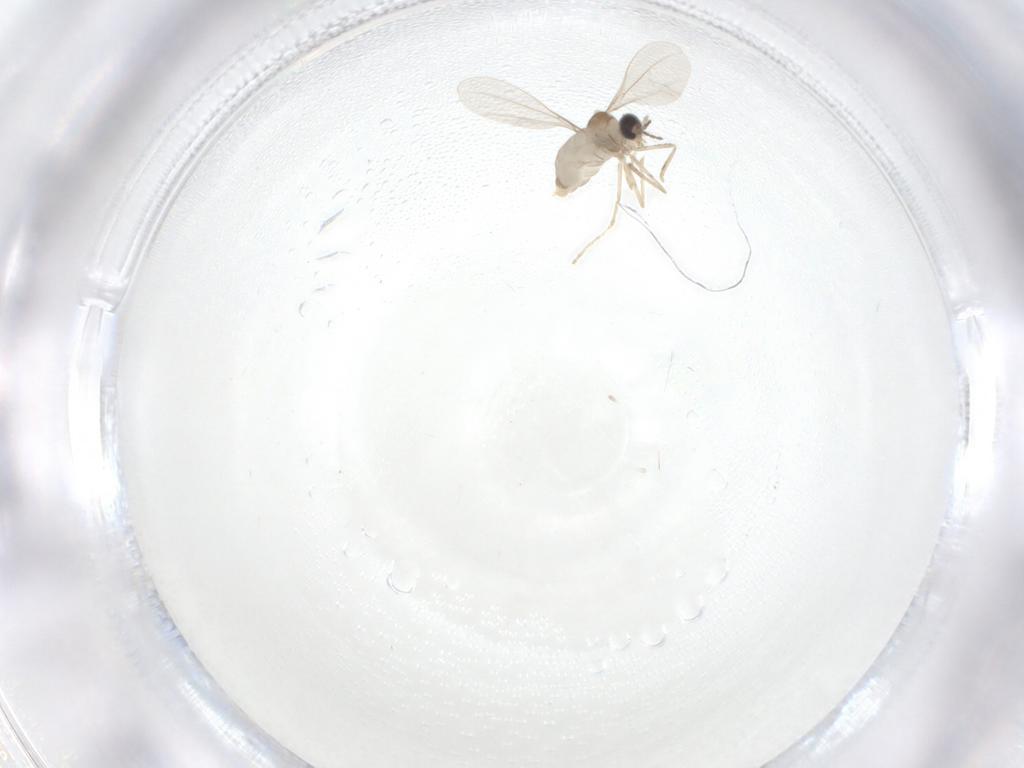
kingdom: Animalia
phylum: Arthropoda
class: Insecta
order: Diptera
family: Cecidomyiidae
